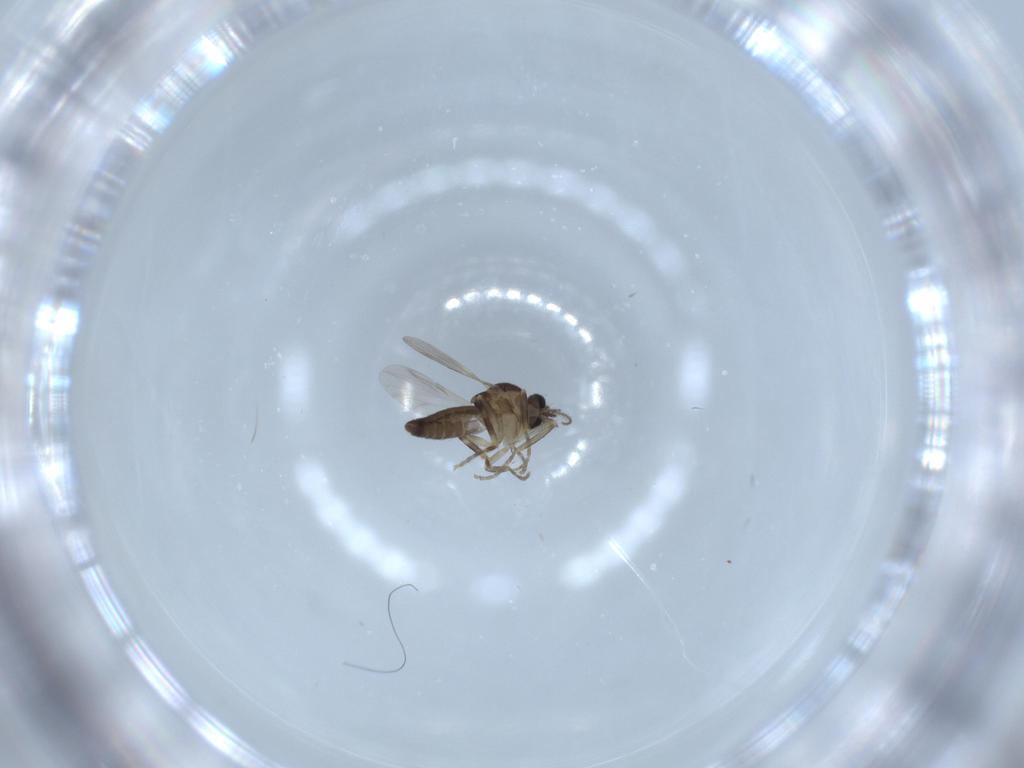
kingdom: Animalia
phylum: Arthropoda
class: Insecta
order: Diptera
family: Ceratopogonidae
